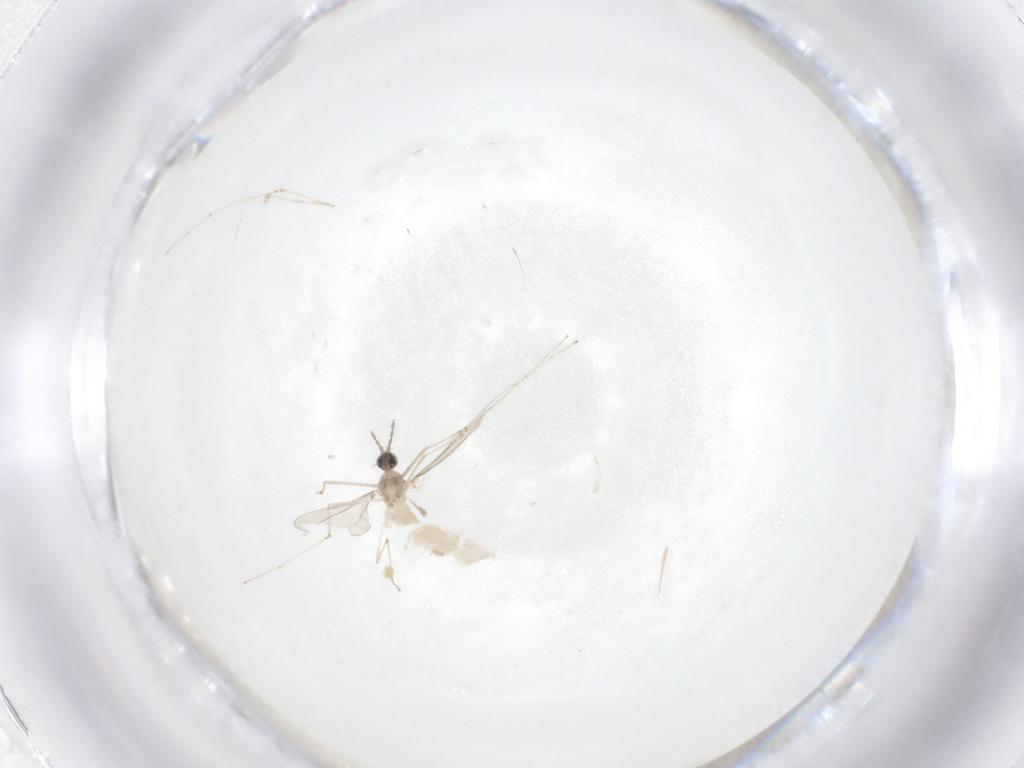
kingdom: Animalia
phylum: Arthropoda
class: Insecta
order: Diptera
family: Cecidomyiidae
